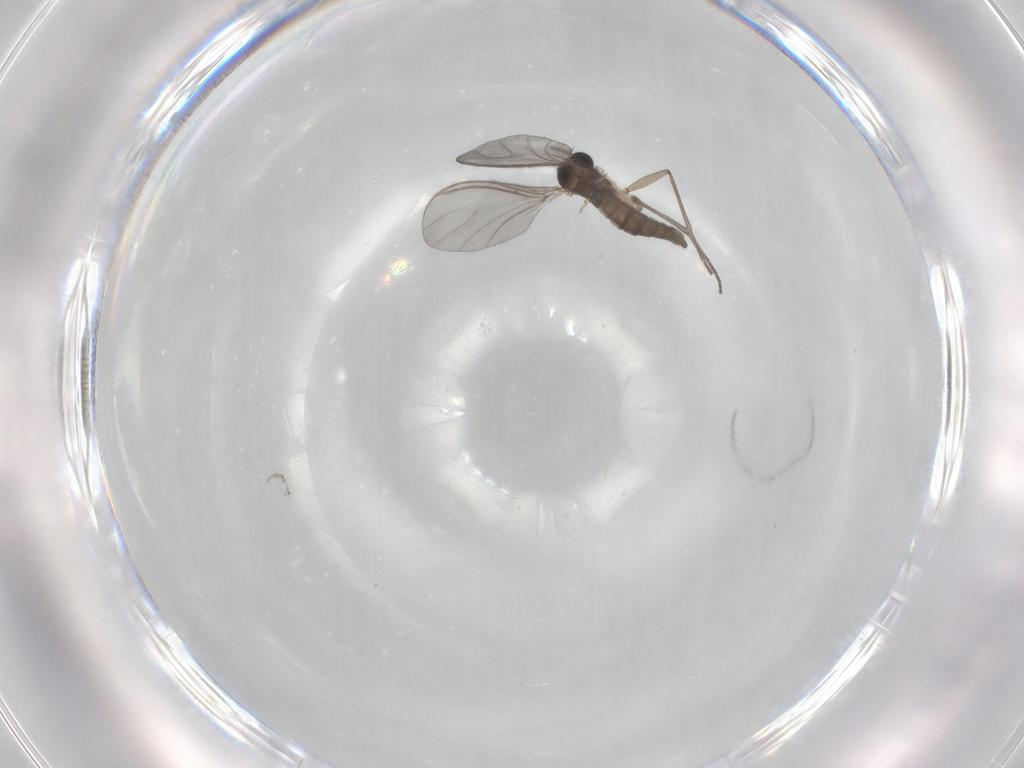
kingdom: Animalia
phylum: Arthropoda
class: Insecta
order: Diptera
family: Sciaridae
